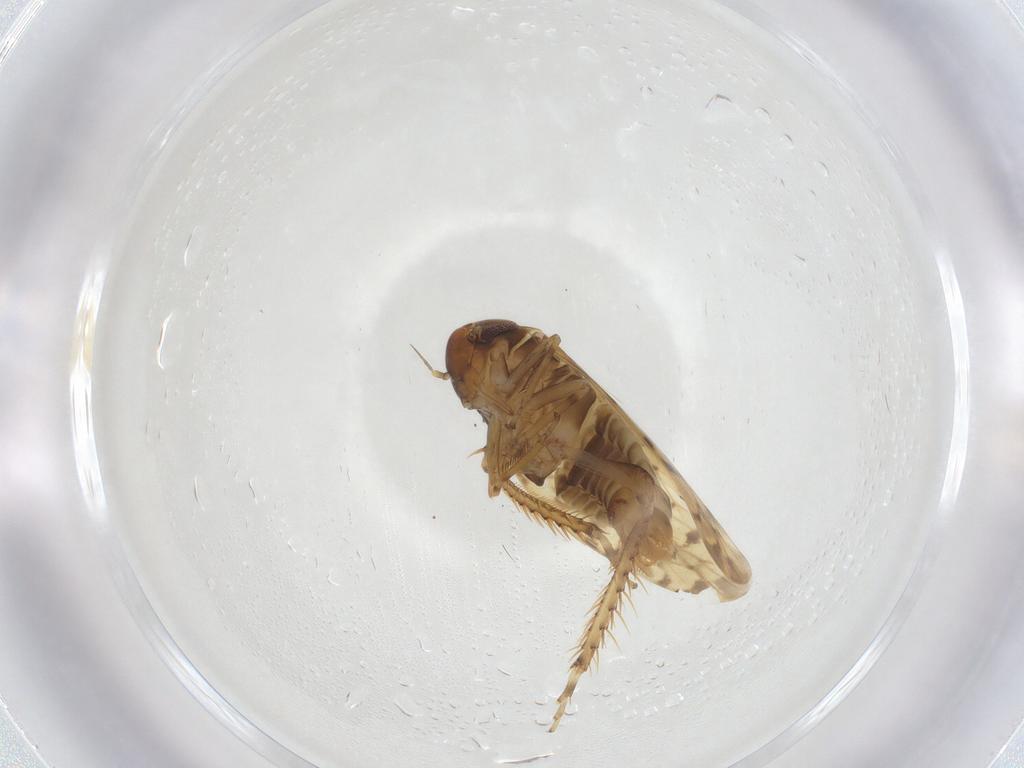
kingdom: Animalia
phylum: Arthropoda
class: Insecta
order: Hemiptera
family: Cicadellidae
